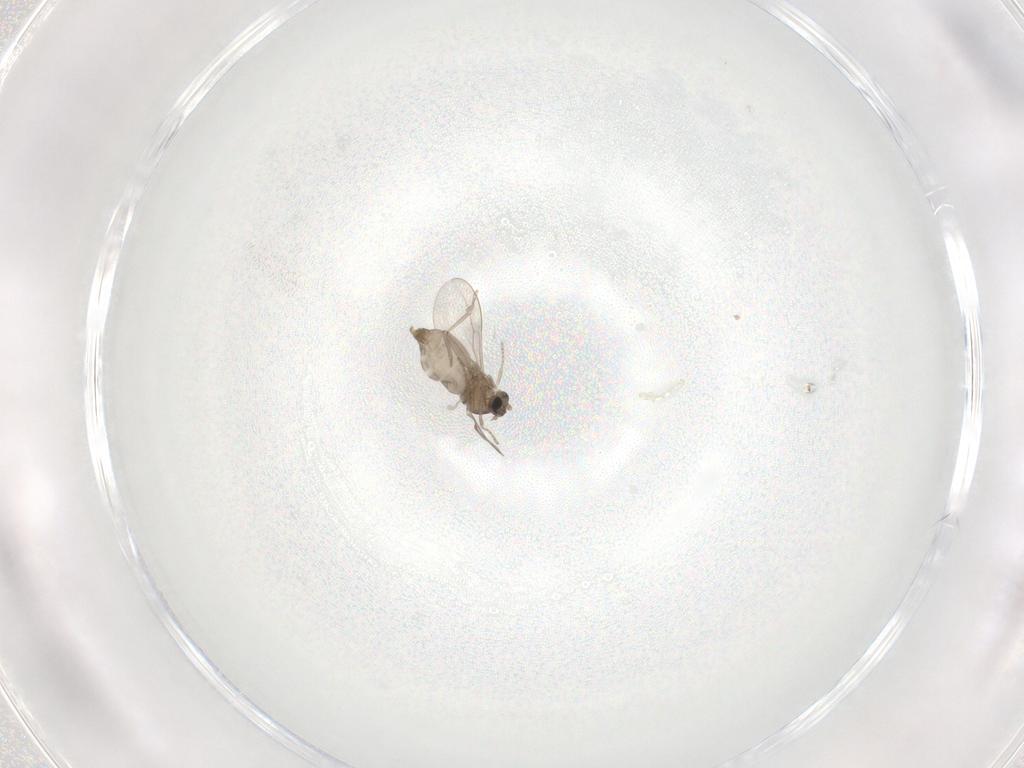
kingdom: Animalia
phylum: Arthropoda
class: Insecta
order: Diptera
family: Cecidomyiidae
